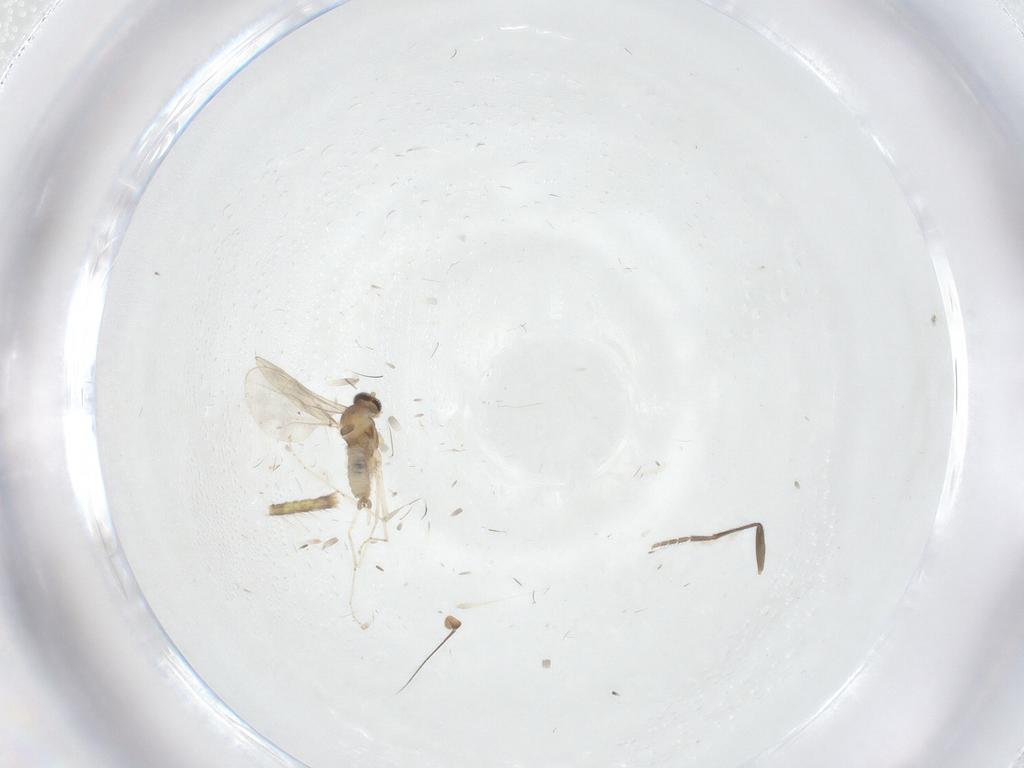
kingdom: Animalia
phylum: Arthropoda
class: Insecta
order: Diptera
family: Phoridae
